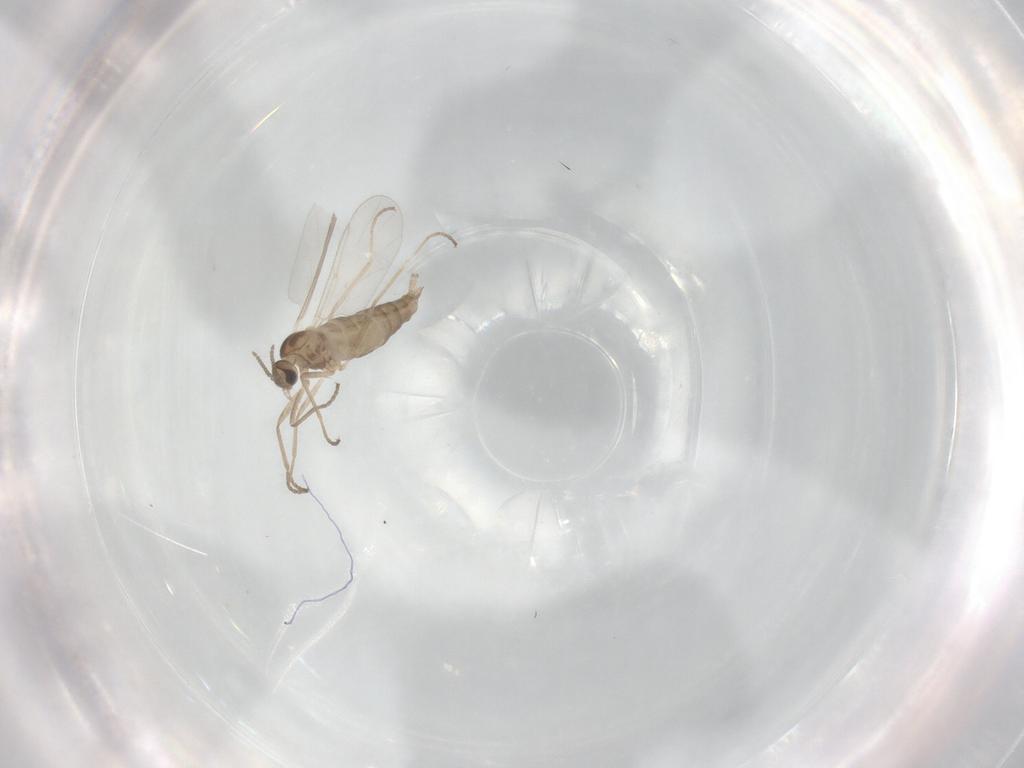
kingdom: Animalia
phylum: Arthropoda
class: Insecta
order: Diptera
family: Cecidomyiidae
